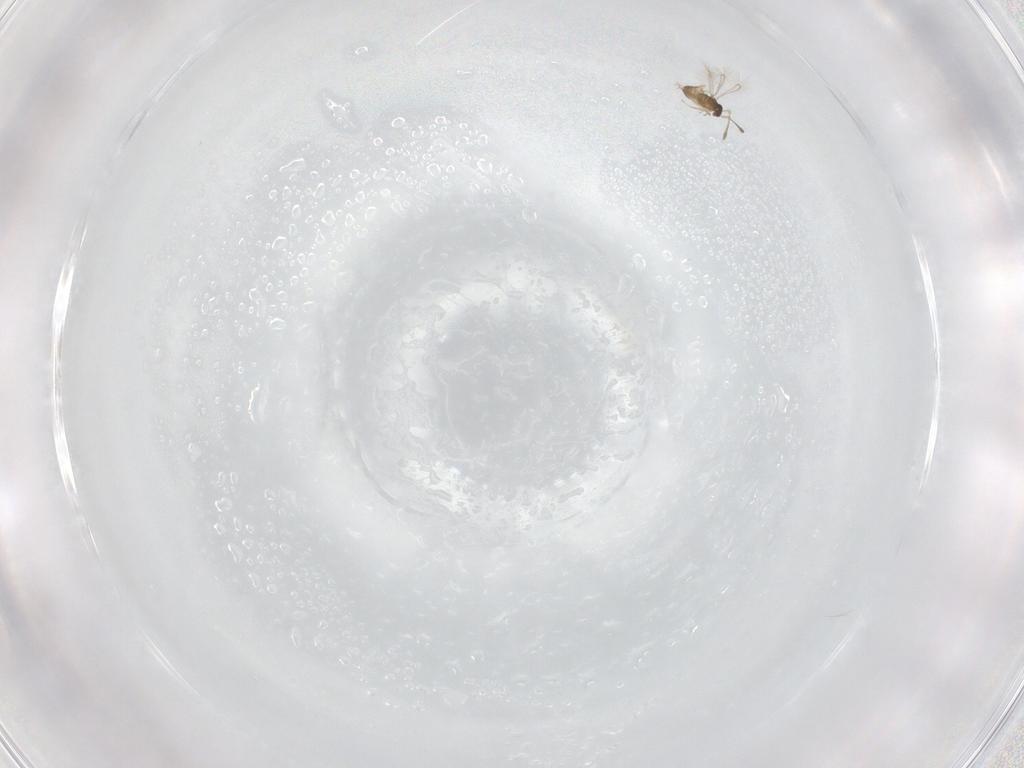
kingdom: Animalia
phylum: Arthropoda
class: Insecta
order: Hymenoptera
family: Mymaridae
